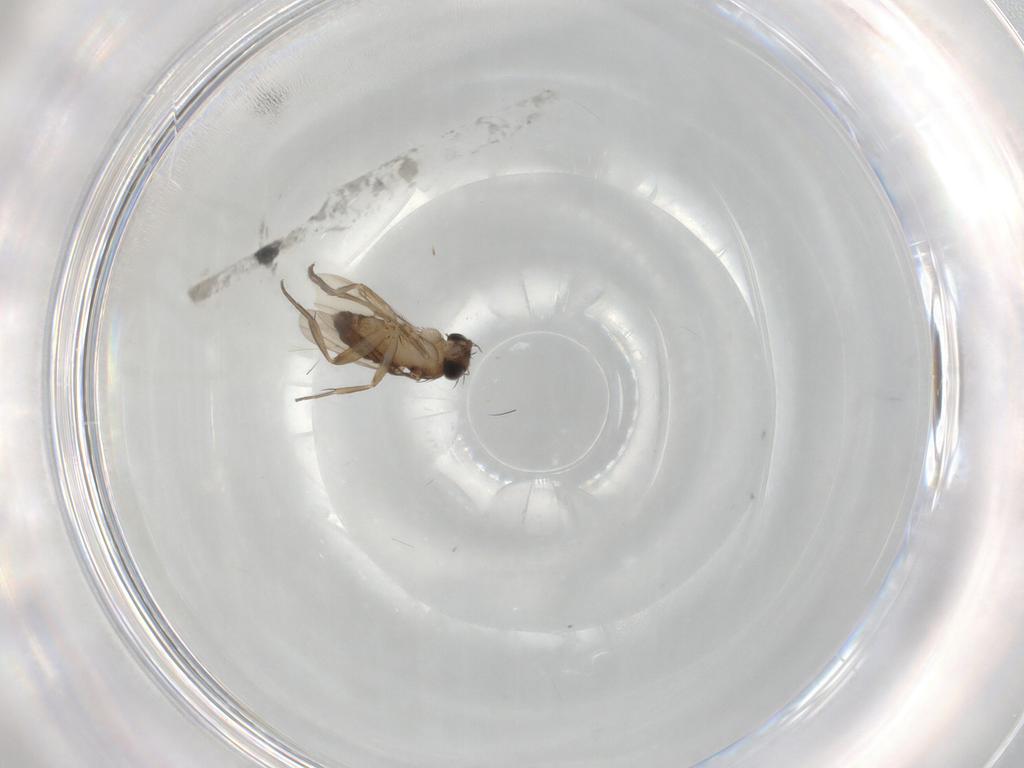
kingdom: Animalia
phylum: Arthropoda
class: Insecta
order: Diptera
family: Phoridae
